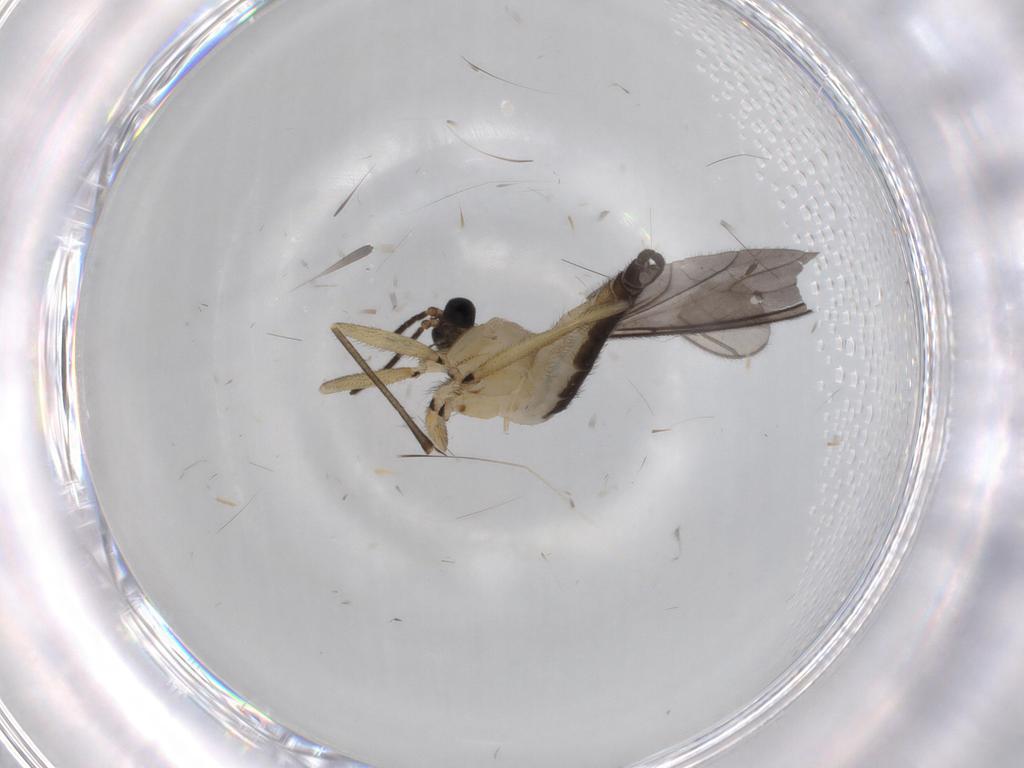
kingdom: Animalia
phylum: Arthropoda
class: Insecta
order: Diptera
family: Sciaridae
